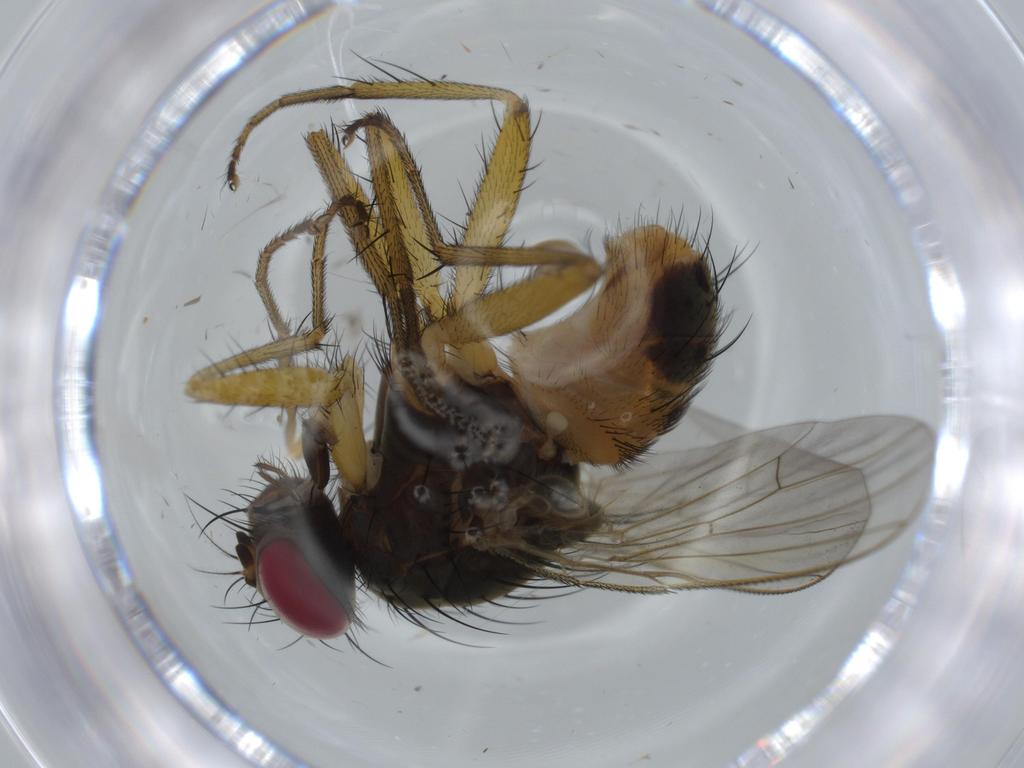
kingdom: Animalia
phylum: Arthropoda
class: Insecta
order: Diptera
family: Muscidae
